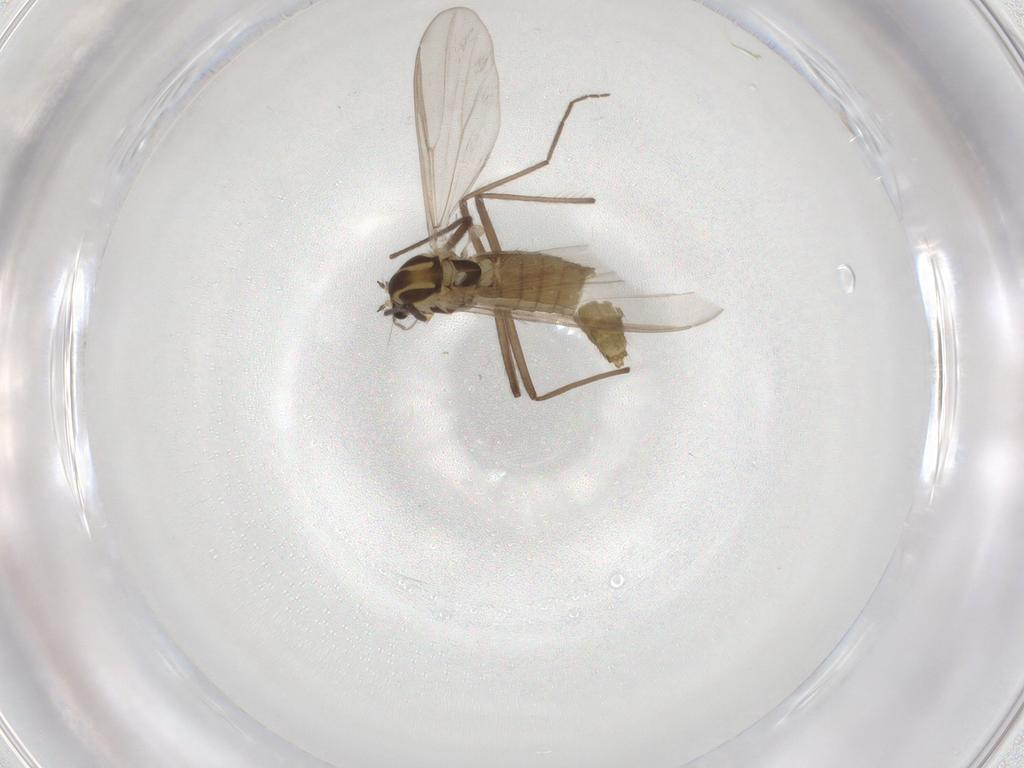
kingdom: Animalia
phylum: Arthropoda
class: Insecta
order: Diptera
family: Chironomidae
